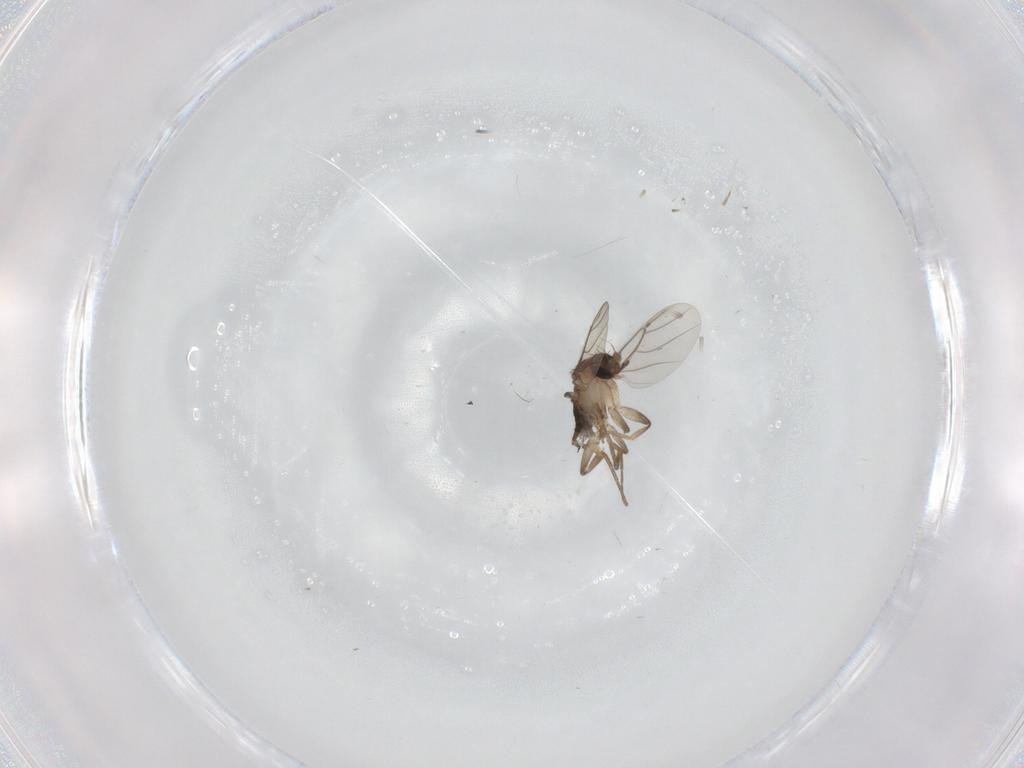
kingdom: Animalia
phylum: Arthropoda
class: Insecta
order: Diptera
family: Phoridae
